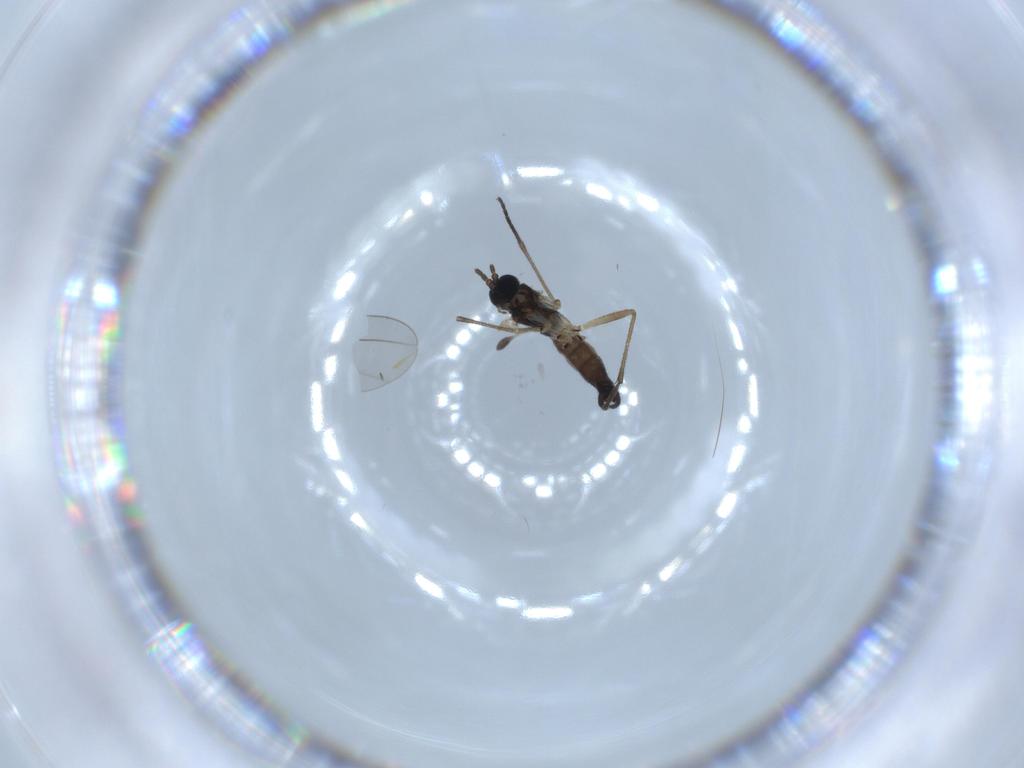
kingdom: Animalia
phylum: Arthropoda
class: Insecta
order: Diptera
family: Sciaridae
